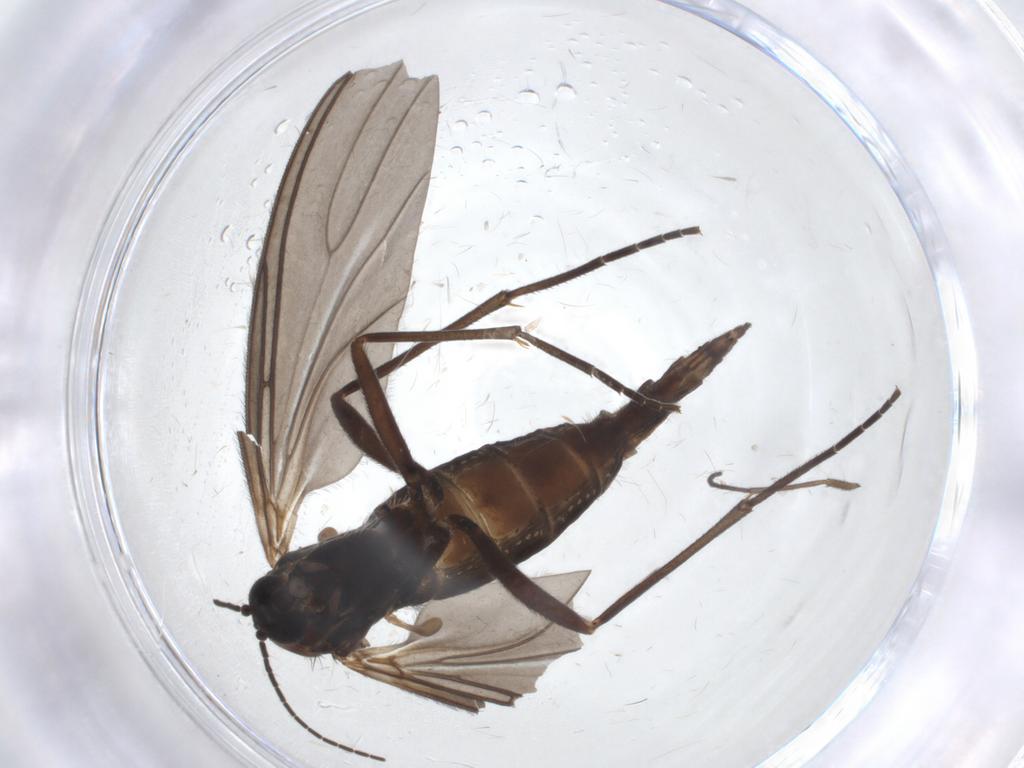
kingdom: Animalia
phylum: Arthropoda
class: Insecta
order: Diptera
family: Sciaridae
